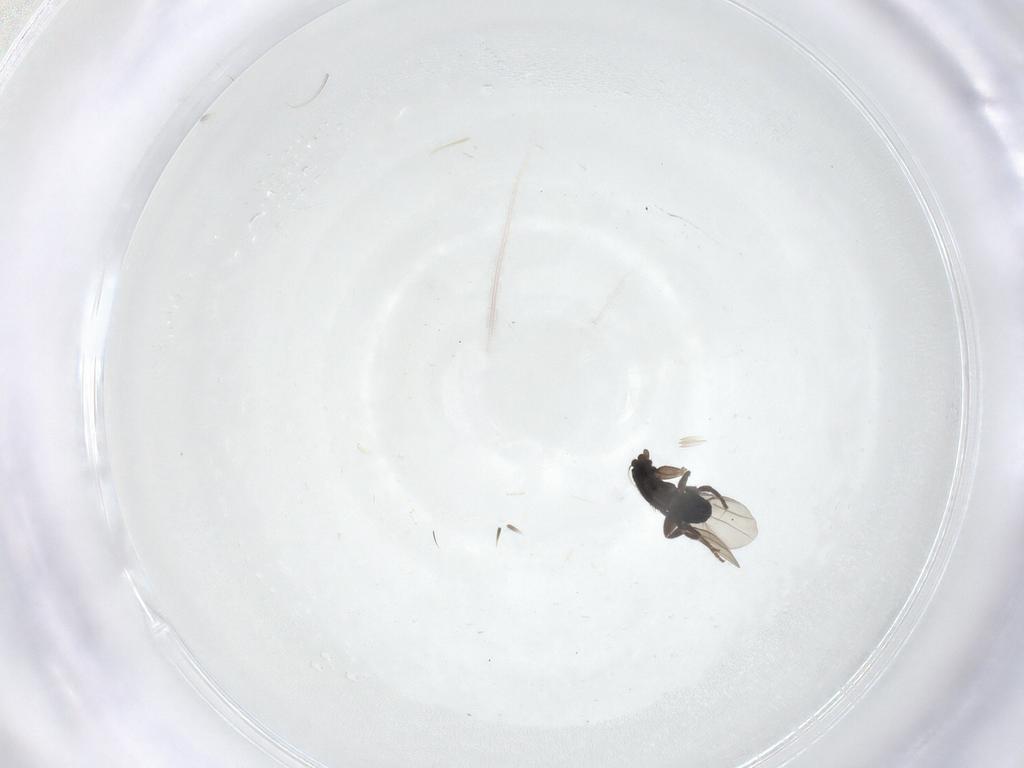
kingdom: Animalia
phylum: Arthropoda
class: Insecta
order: Diptera
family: Phoridae
